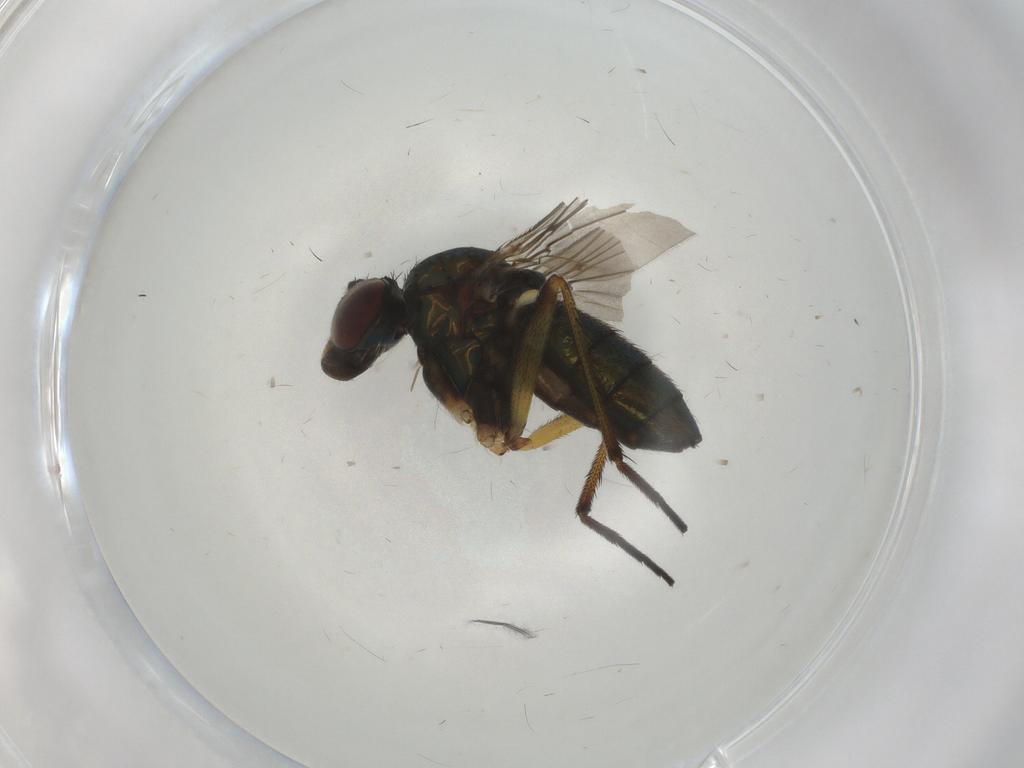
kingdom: Animalia
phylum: Arthropoda
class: Insecta
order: Diptera
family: Dolichopodidae
